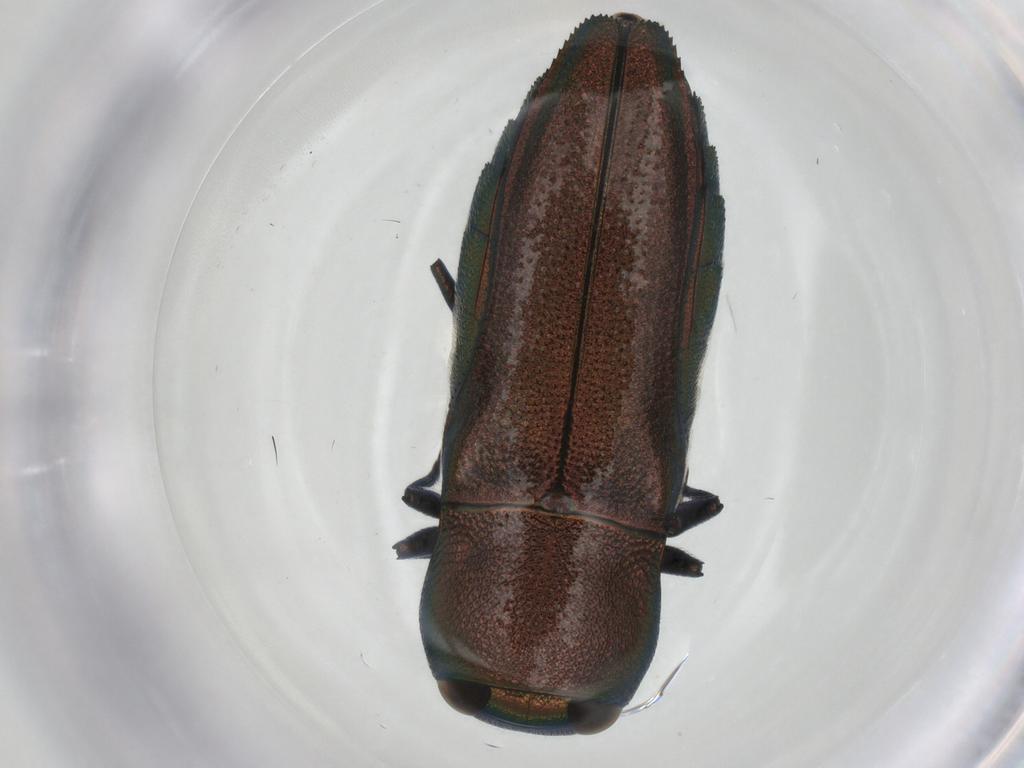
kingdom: Animalia
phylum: Arthropoda
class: Insecta
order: Coleoptera
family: Buprestidae
